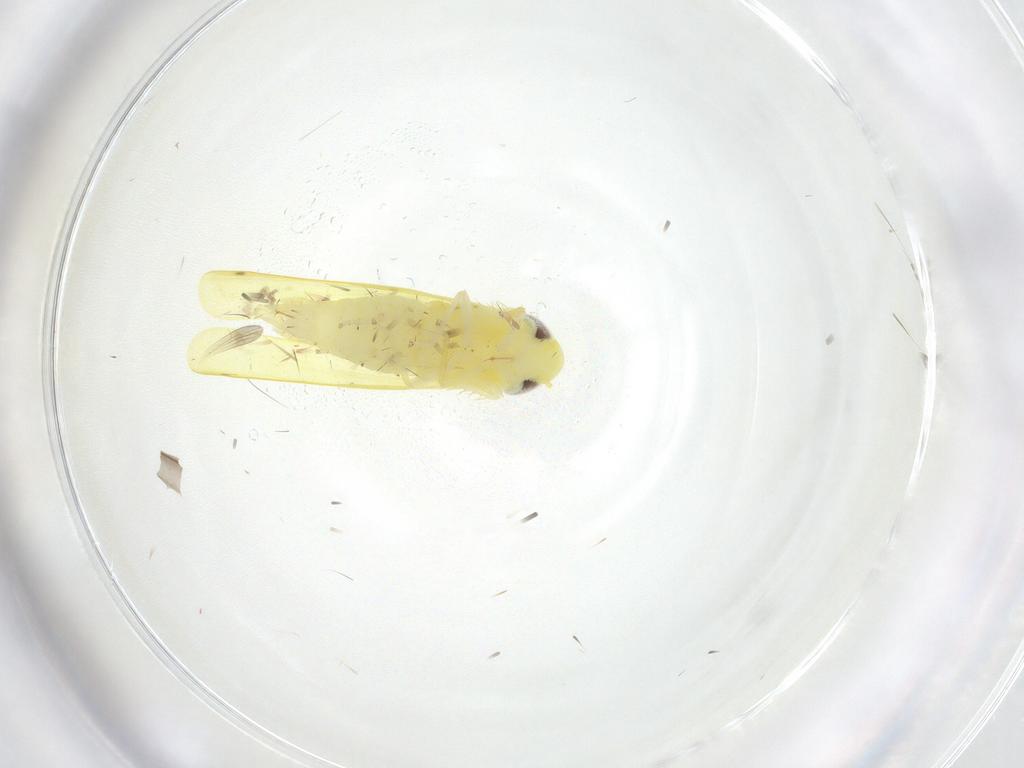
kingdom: Animalia
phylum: Arthropoda
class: Insecta
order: Hemiptera
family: Cicadellidae
